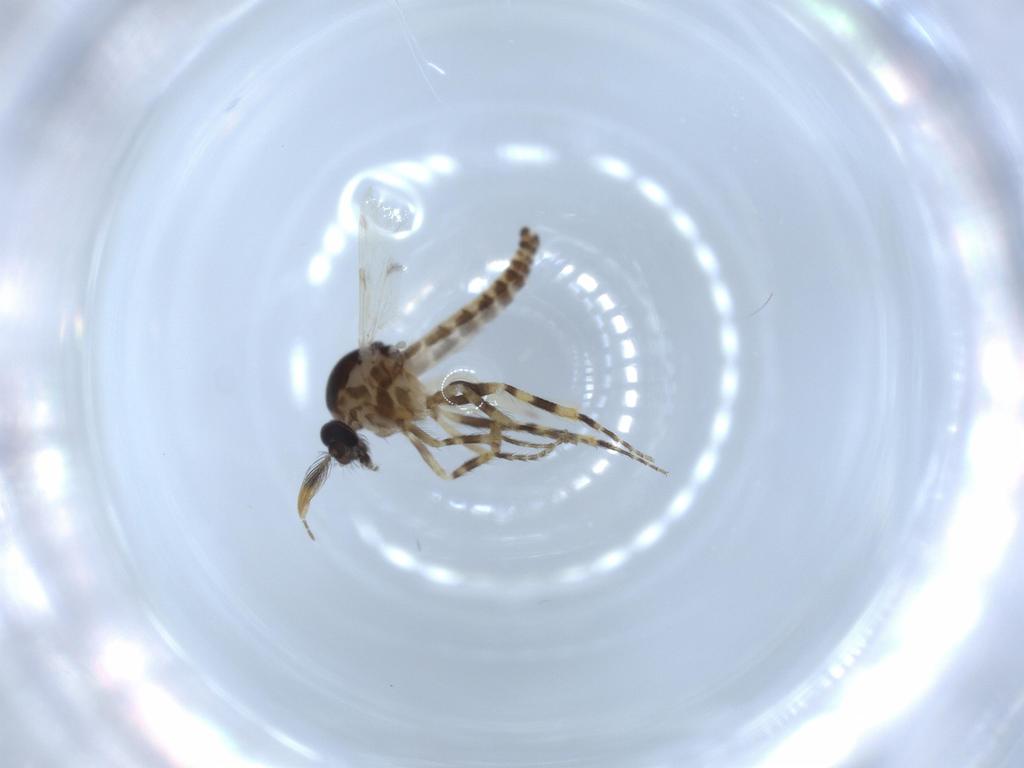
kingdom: Animalia
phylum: Arthropoda
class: Insecta
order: Diptera
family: Ceratopogonidae
